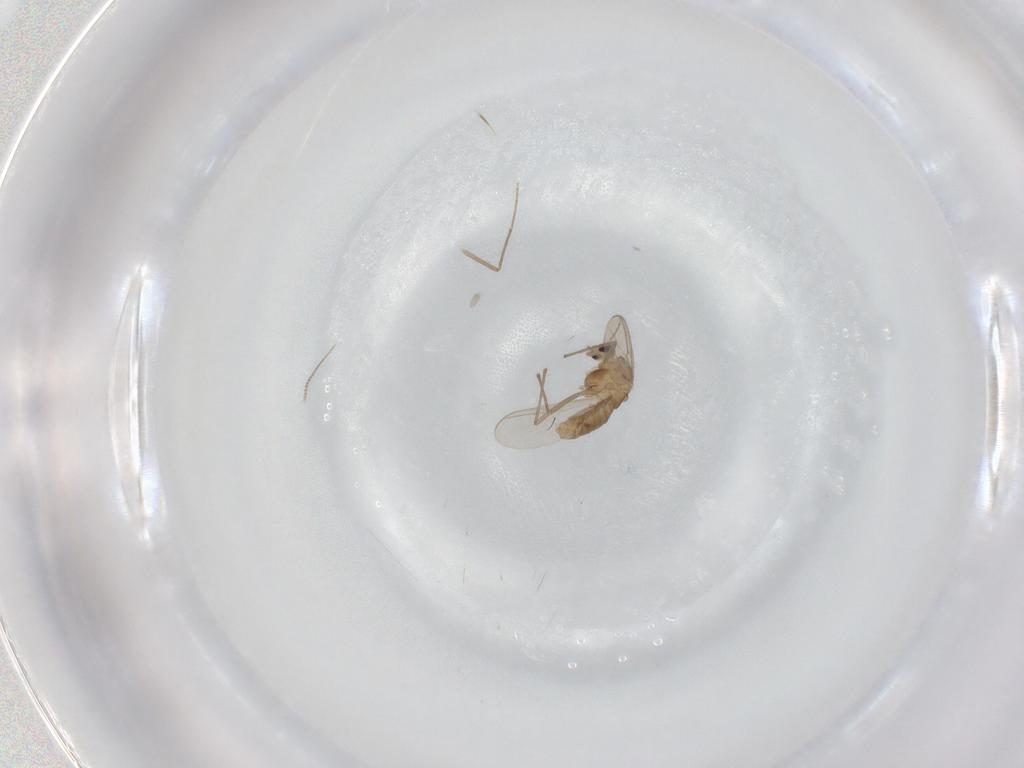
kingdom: Animalia
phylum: Arthropoda
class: Insecta
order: Diptera
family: Chironomidae
